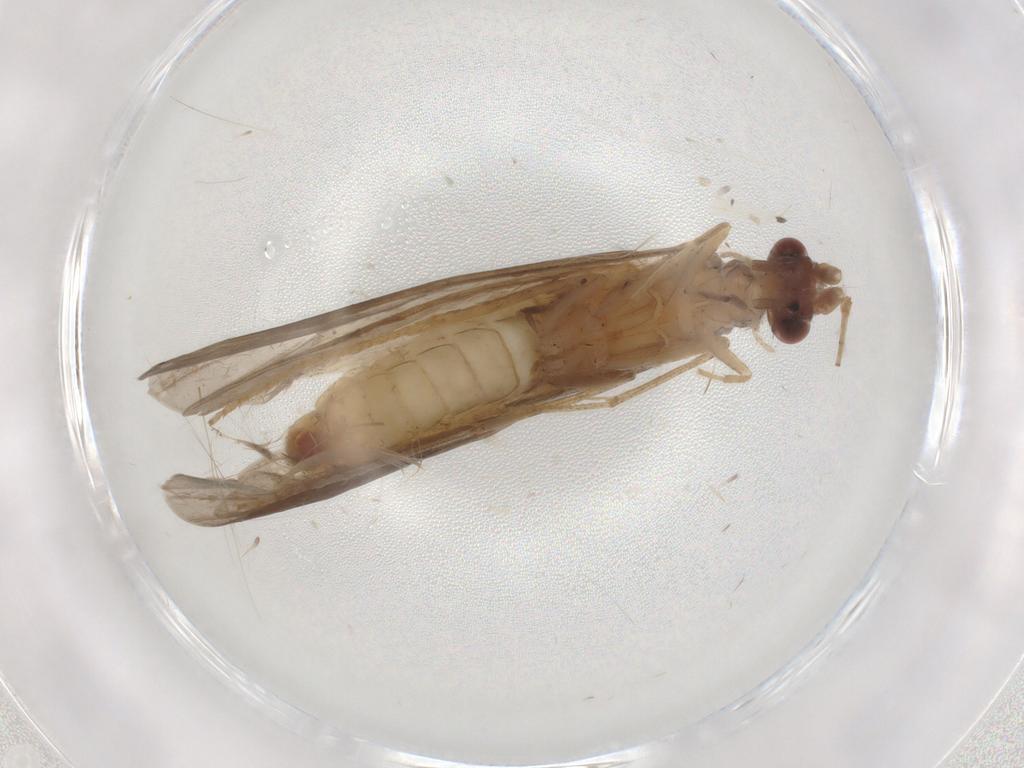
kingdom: Animalia
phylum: Arthropoda
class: Insecta
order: Trichoptera
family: Leptoceridae
